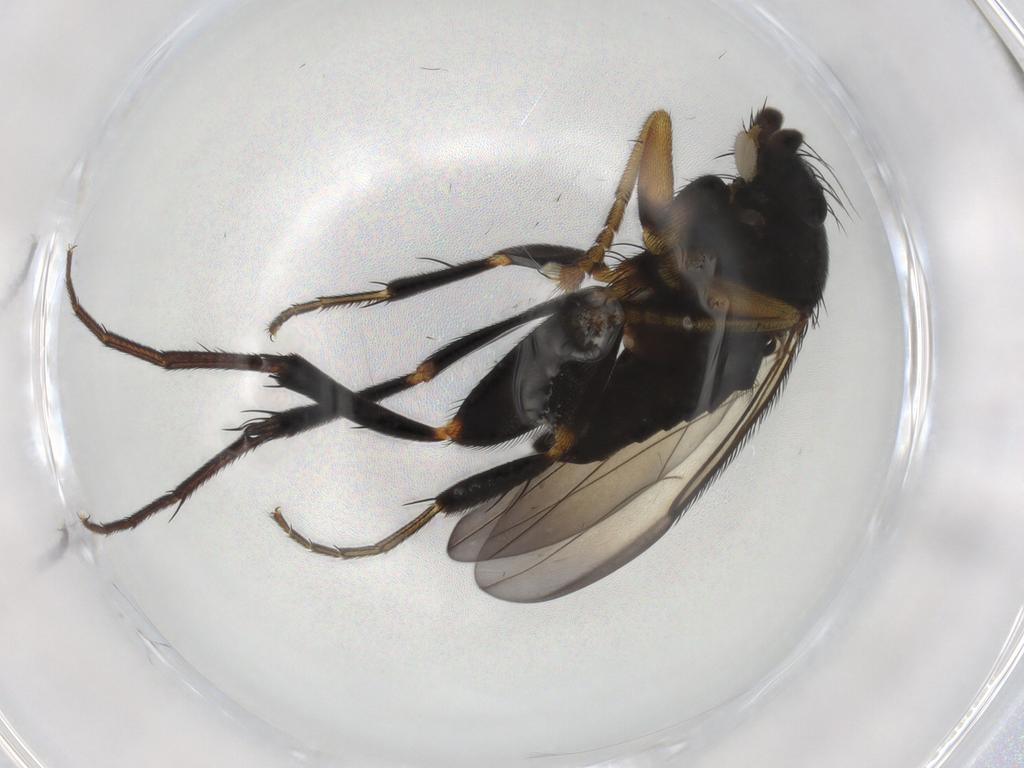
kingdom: Animalia
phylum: Arthropoda
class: Insecta
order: Diptera
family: Phoridae
